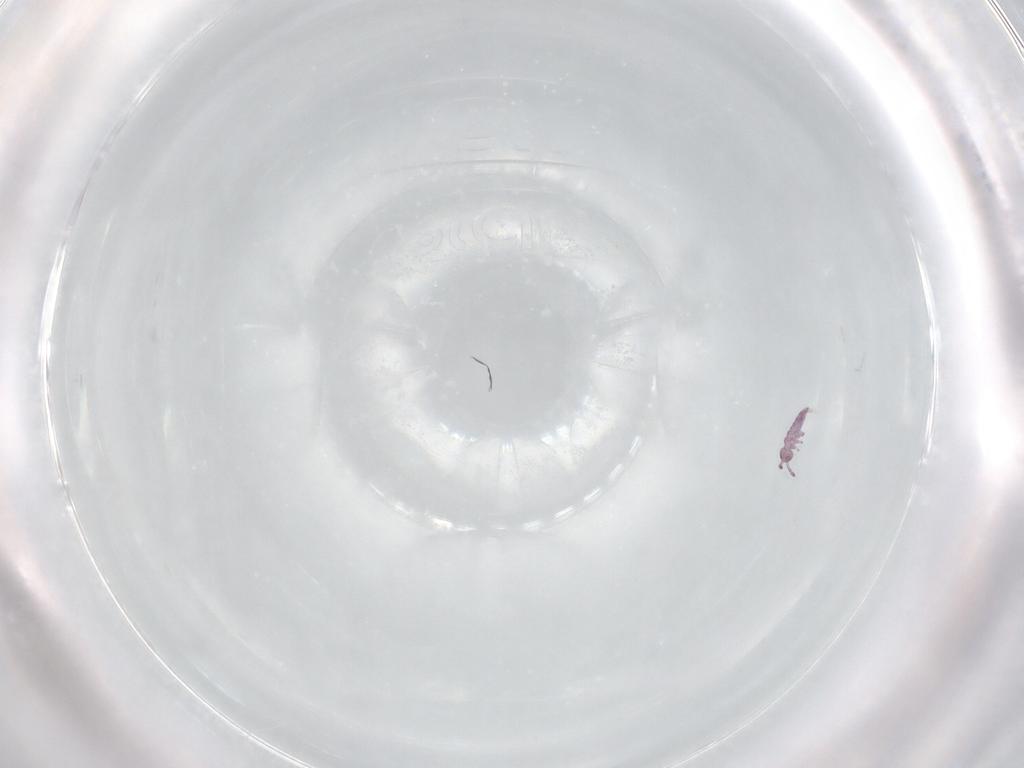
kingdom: Animalia
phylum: Arthropoda
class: Collembola
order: Entomobryomorpha
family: Isotomidae
